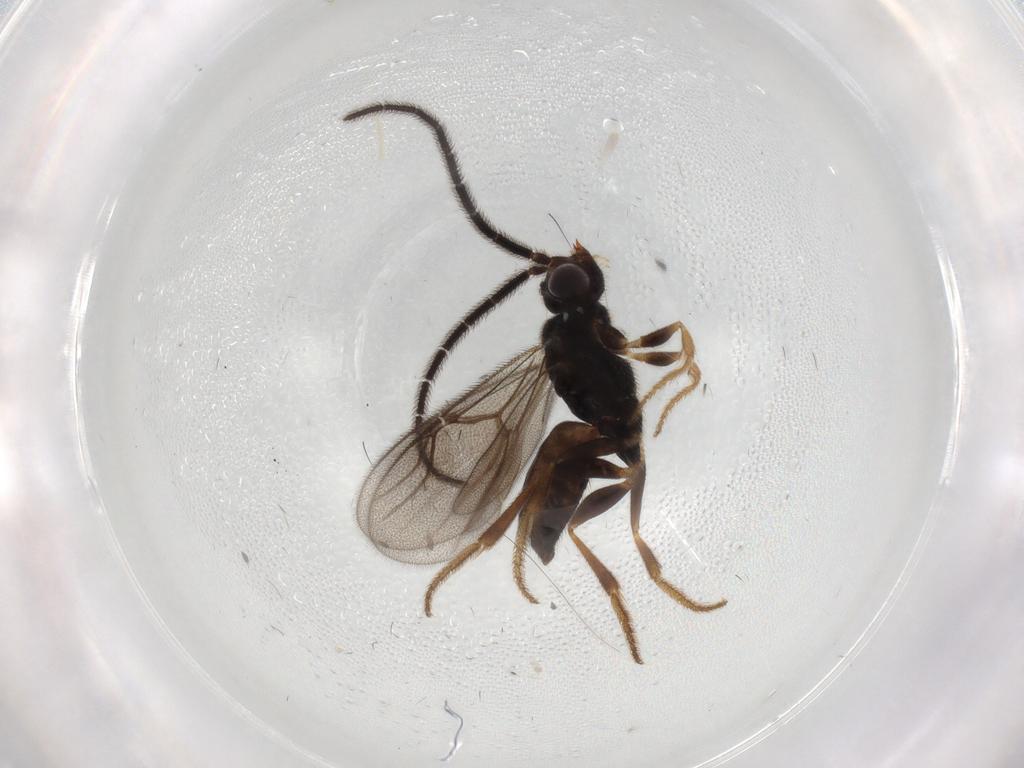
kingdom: Animalia
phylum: Arthropoda
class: Insecta
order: Hymenoptera
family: Dryinidae
